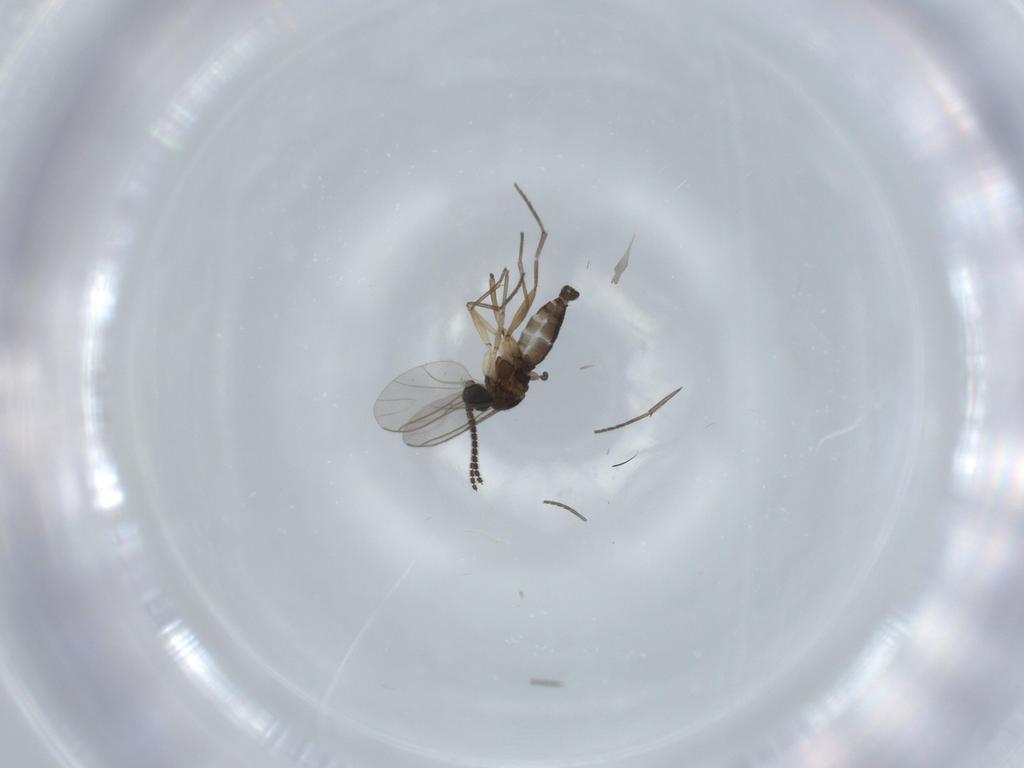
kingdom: Animalia
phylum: Arthropoda
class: Insecta
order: Diptera
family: Sciaridae
